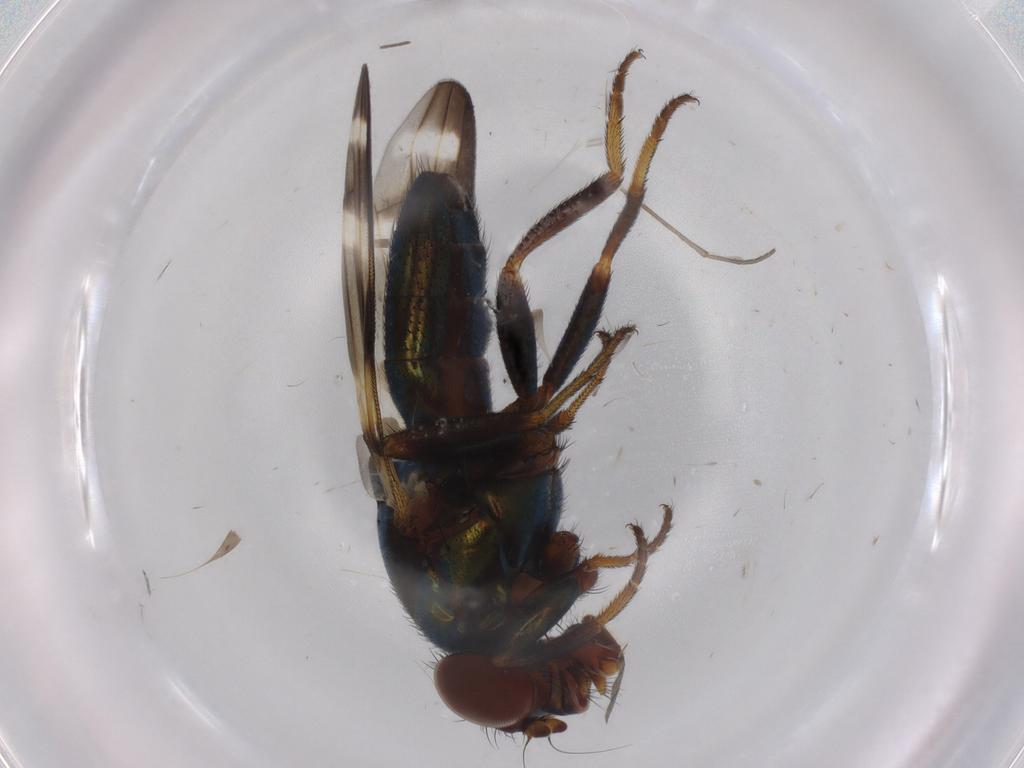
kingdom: Animalia
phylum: Arthropoda
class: Insecta
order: Diptera
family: Ulidiidae
